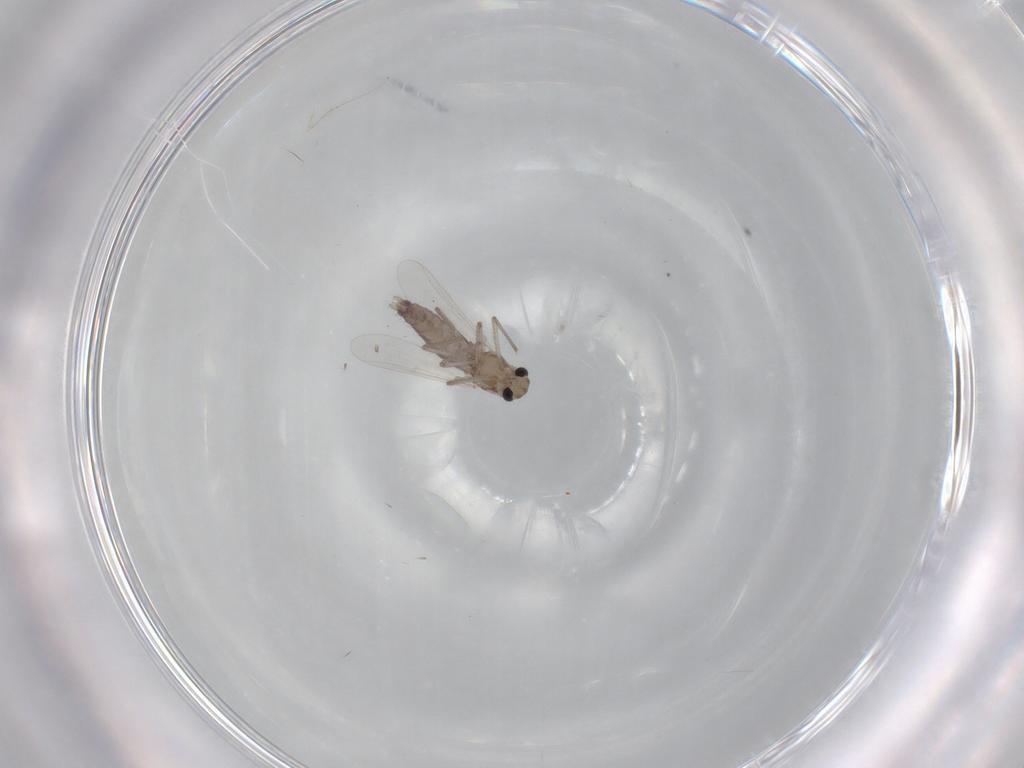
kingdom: Animalia
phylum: Arthropoda
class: Insecta
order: Diptera
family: Chironomidae
